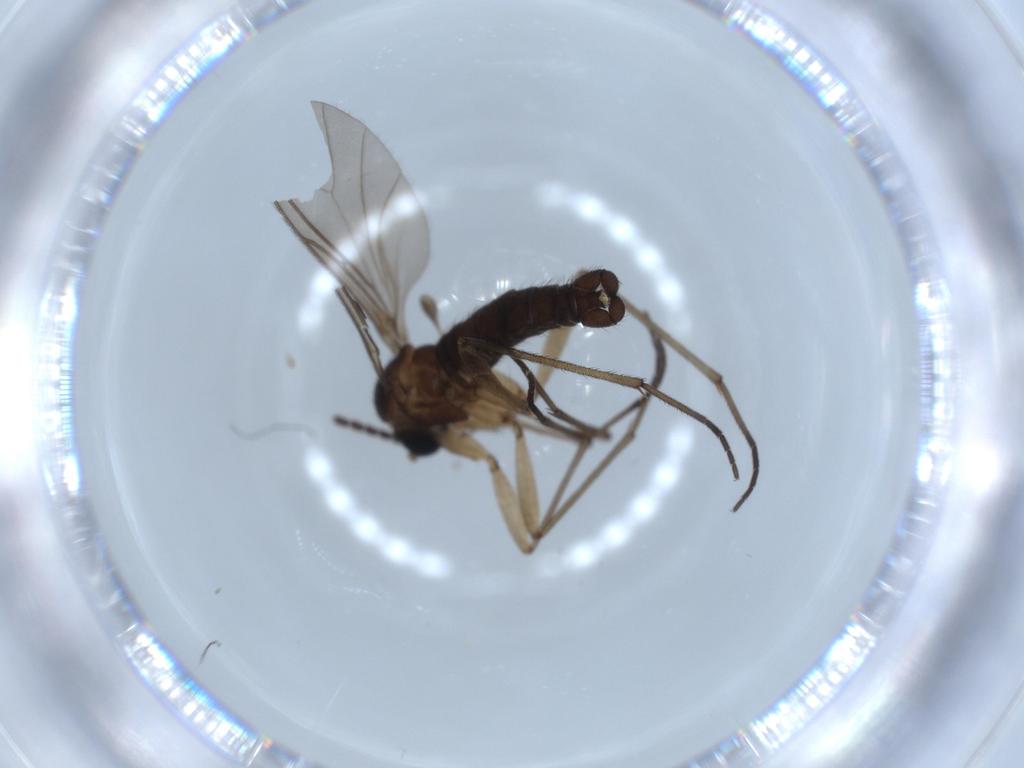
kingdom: Animalia
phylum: Arthropoda
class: Insecta
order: Diptera
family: Sciaridae
